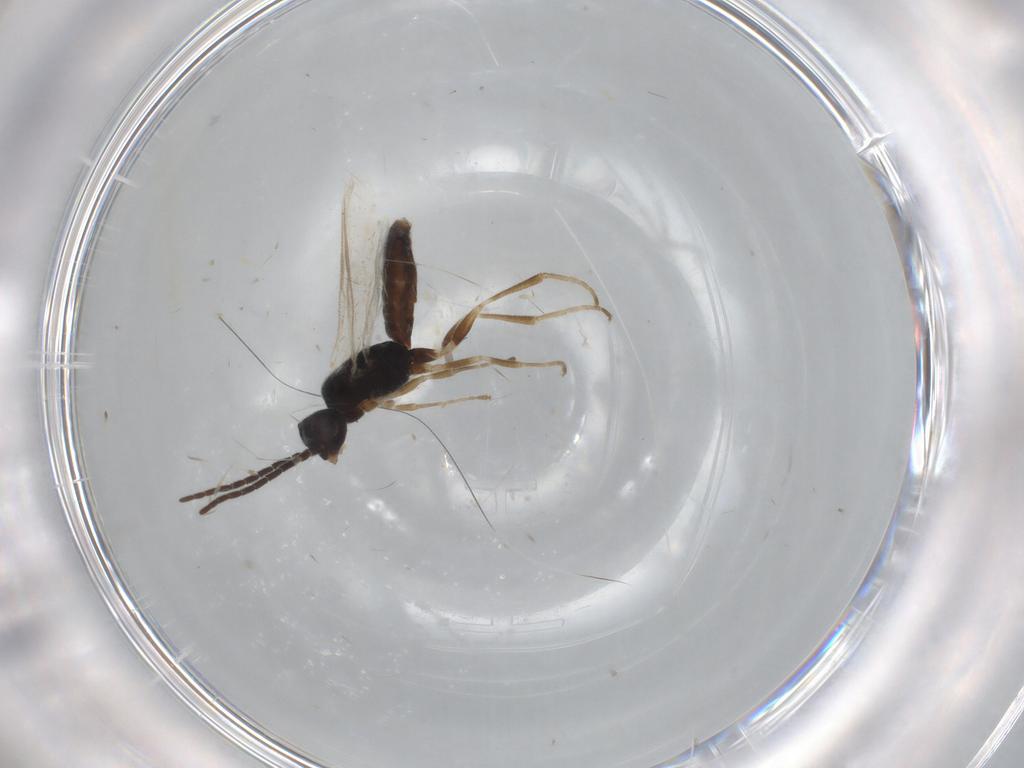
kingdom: Animalia
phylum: Arthropoda
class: Insecta
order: Hymenoptera
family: Dryinidae
